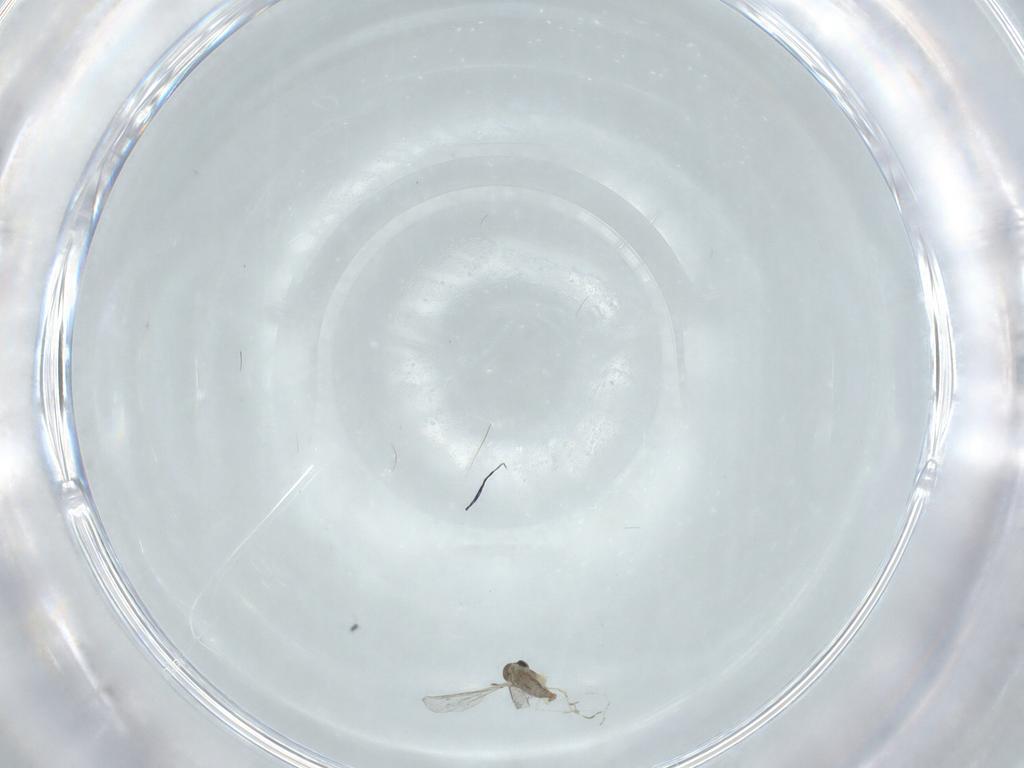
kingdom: Animalia
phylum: Arthropoda
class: Insecta
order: Diptera
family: Cecidomyiidae
